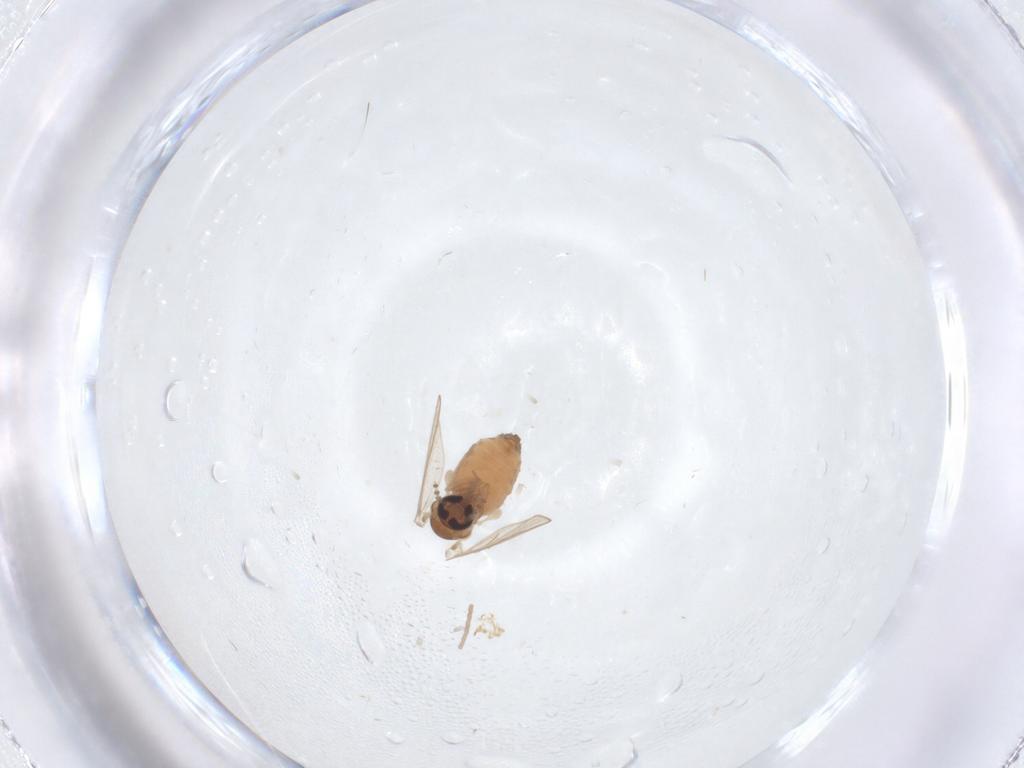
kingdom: Animalia
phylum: Arthropoda
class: Insecta
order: Diptera
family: Psychodidae
